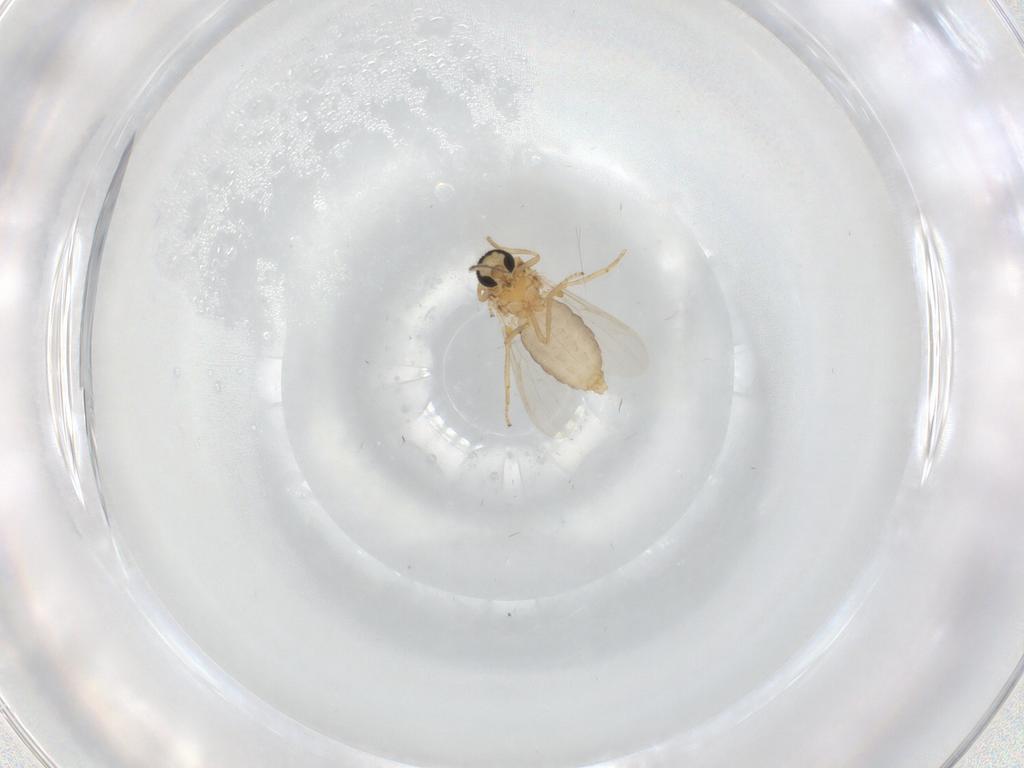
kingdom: Animalia
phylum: Arthropoda
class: Insecta
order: Diptera
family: Ceratopogonidae
